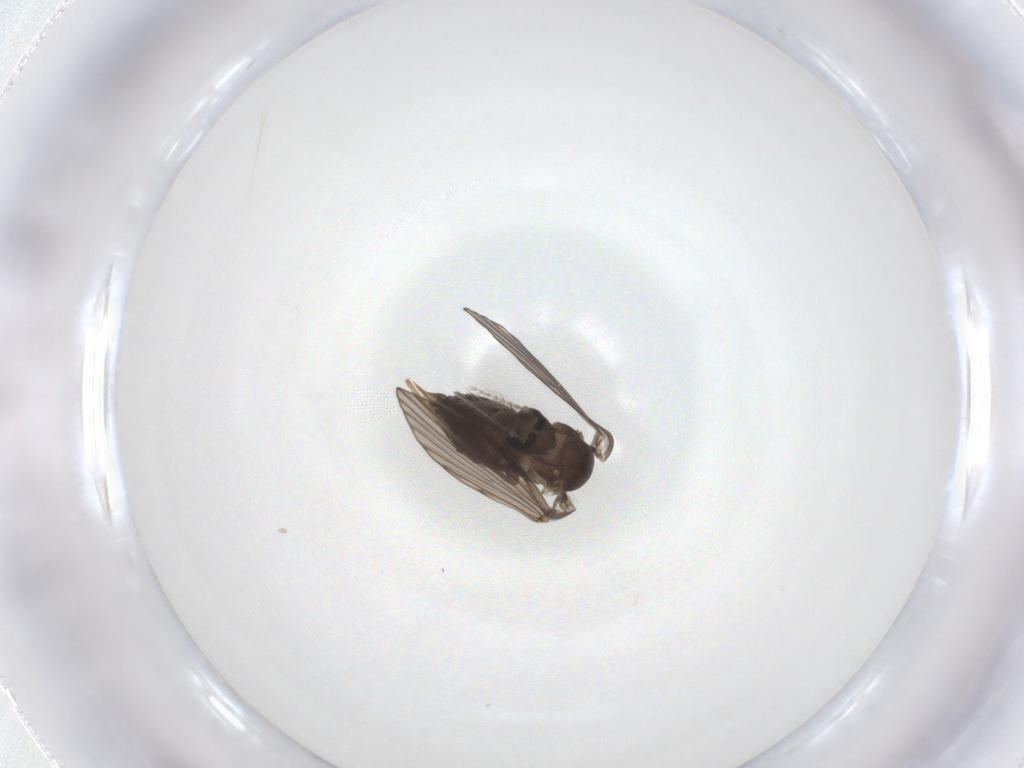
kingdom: Animalia
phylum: Arthropoda
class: Insecta
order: Diptera
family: Psychodidae
